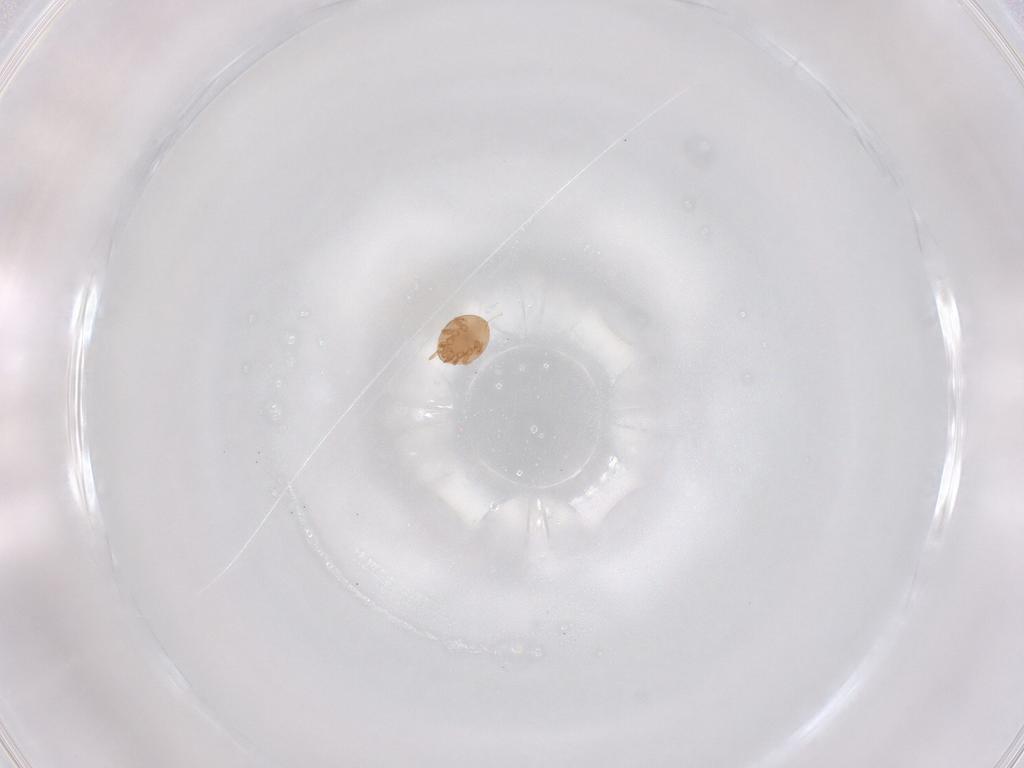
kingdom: Animalia
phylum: Arthropoda
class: Arachnida
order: Mesostigmata
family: Trematuridae
